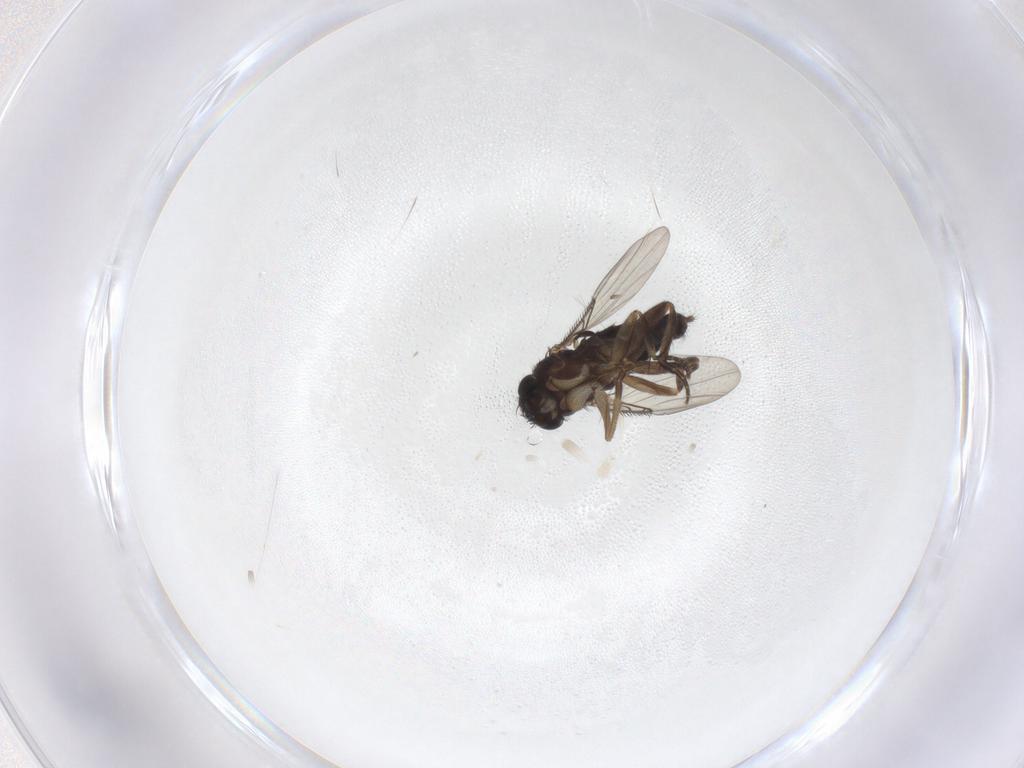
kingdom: Animalia
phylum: Arthropoda
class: Insecta
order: Diptera
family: Phoridae
